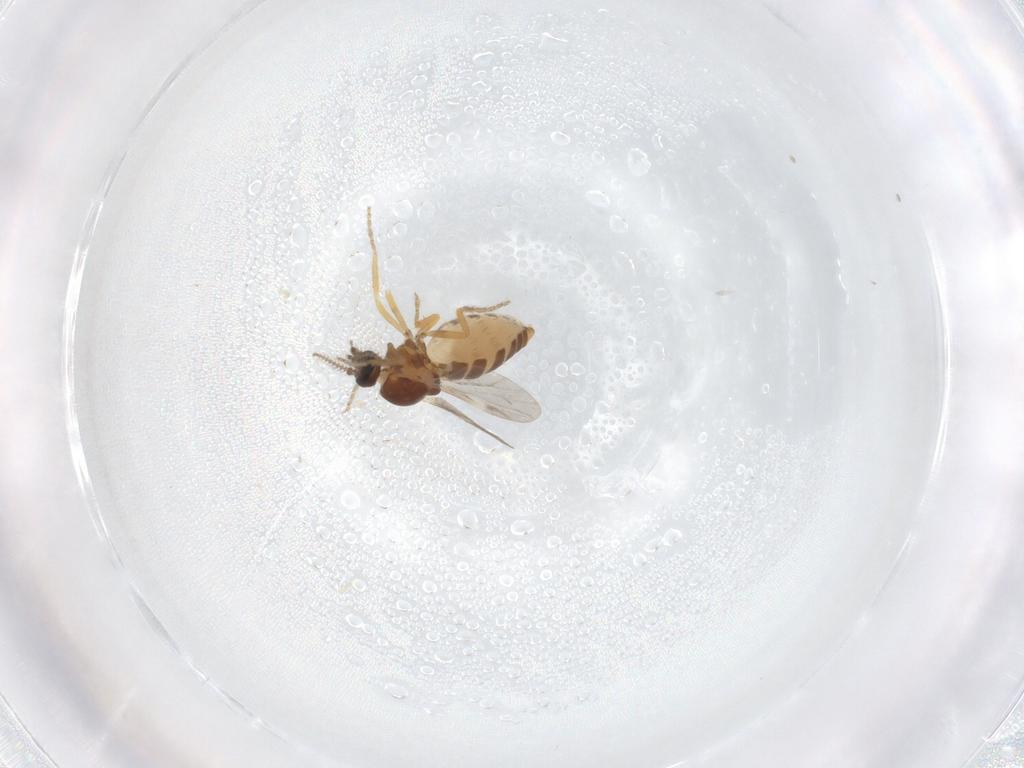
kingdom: Animalia
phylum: Arthropoda
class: Insecta
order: Diptera
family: Ceratopogonidae
